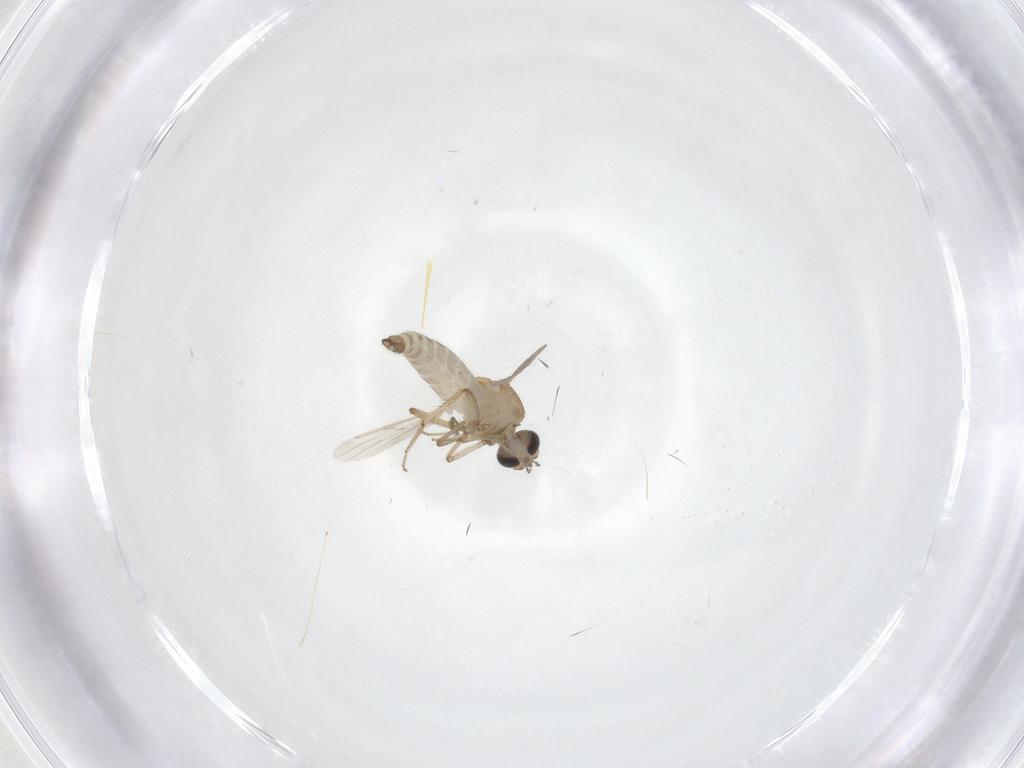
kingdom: Animalia
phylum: Arthropoda
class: Insecta
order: Diptera
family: Ceratopogonidae
